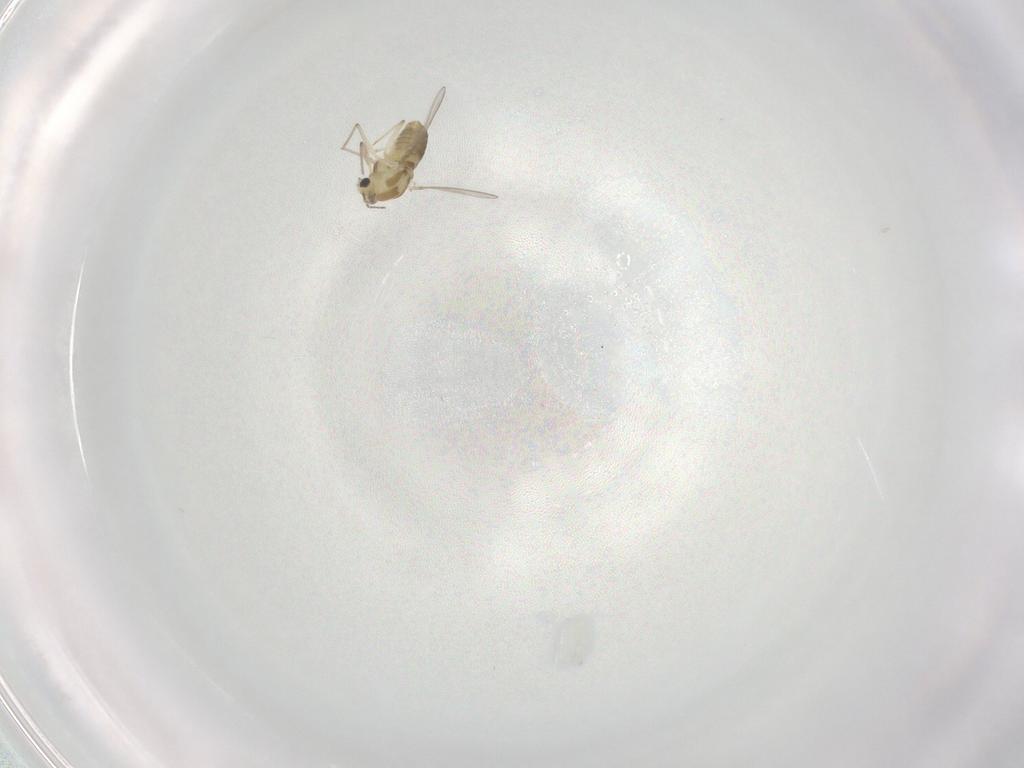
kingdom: Animalia
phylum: Arthropoda
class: Insecta
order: Diptera
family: Chironomidae
